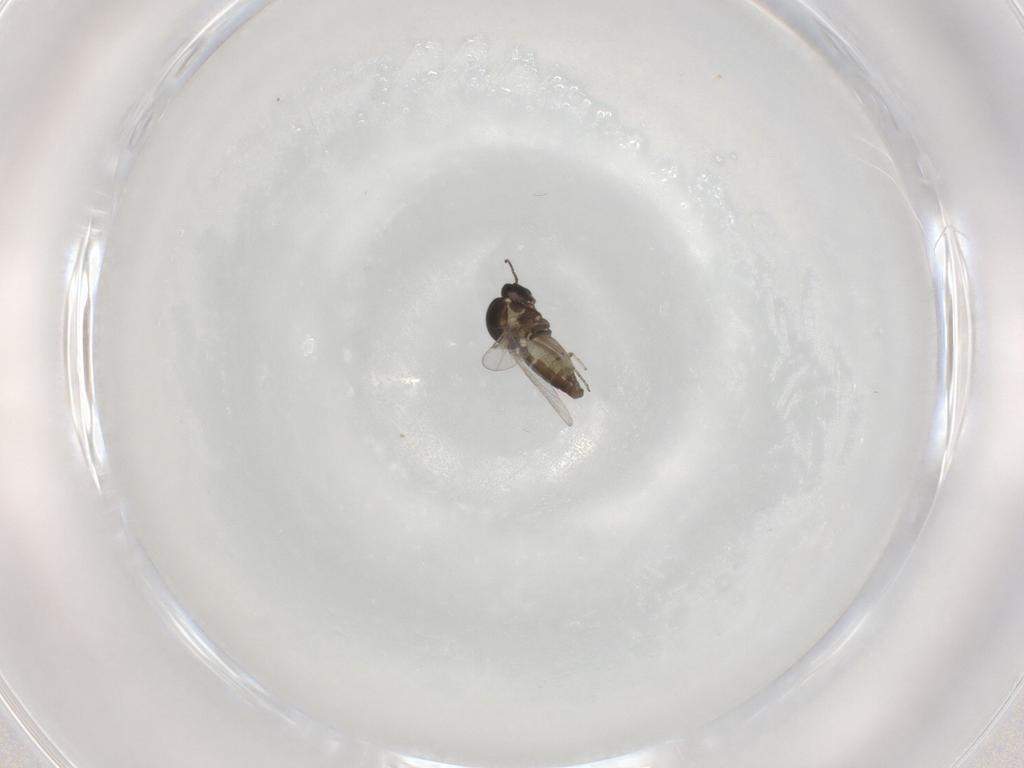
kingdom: Animalia
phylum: Arthropoda
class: Insecta
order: Diptera
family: Ceratopogonidae
